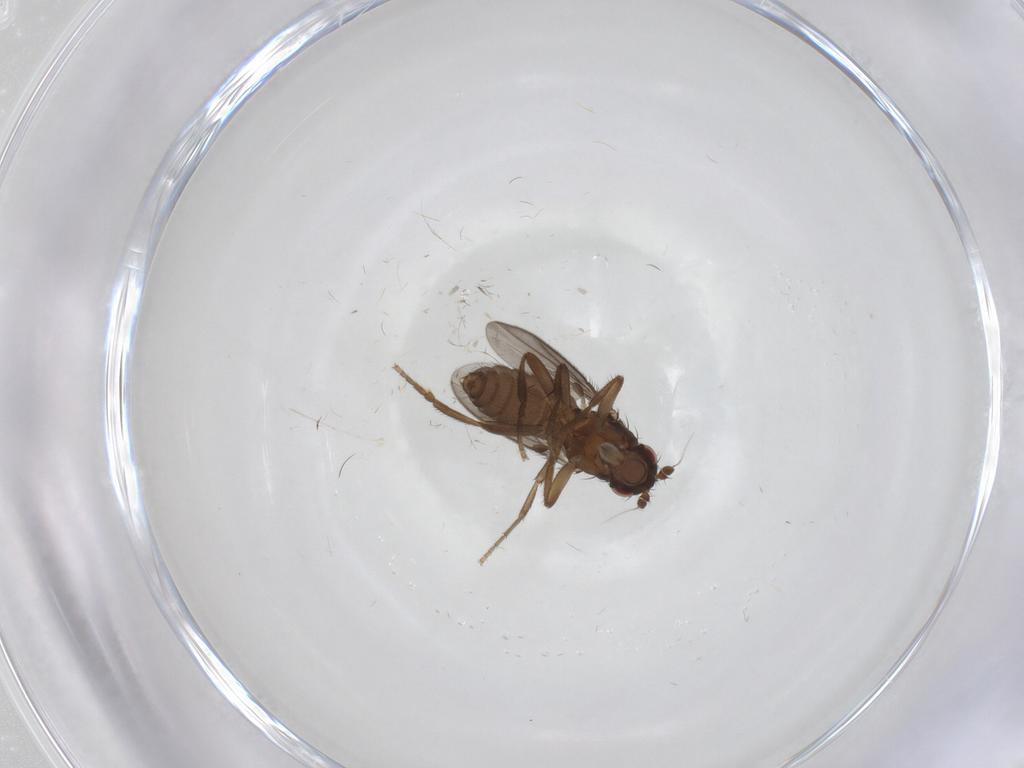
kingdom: Animalia
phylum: Arthropoda
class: Insecta
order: Diptera
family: Sphaeroceridae
